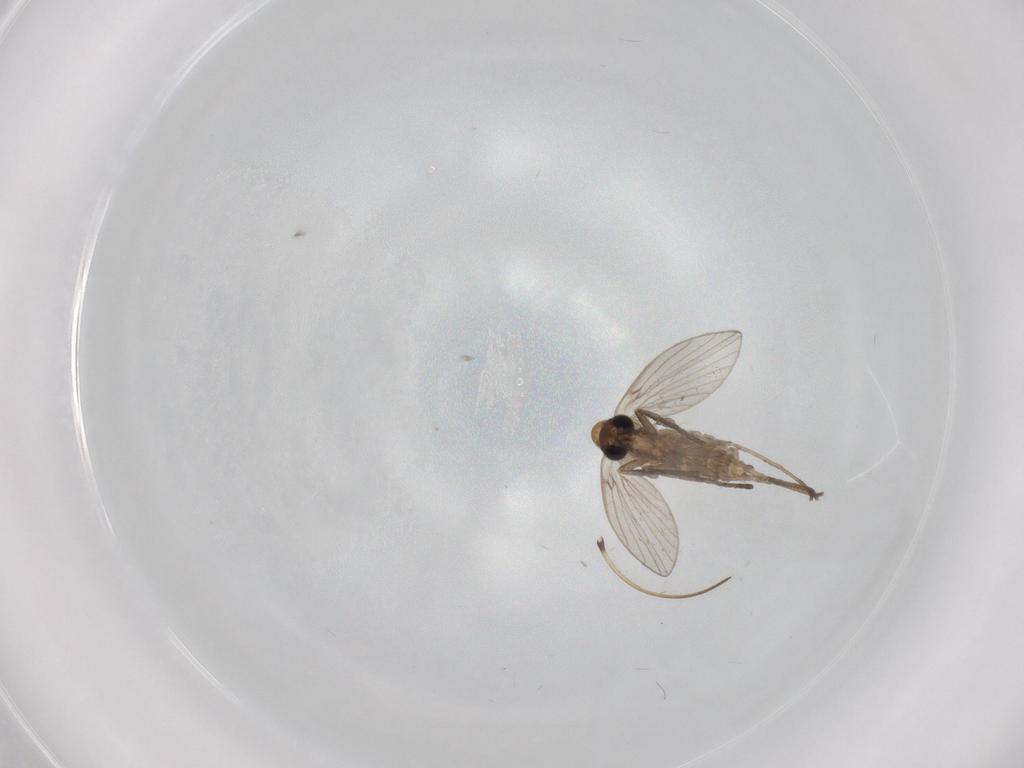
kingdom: Animalia
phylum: Arthropoda
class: Insecta
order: Diptera
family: Psychodidae
